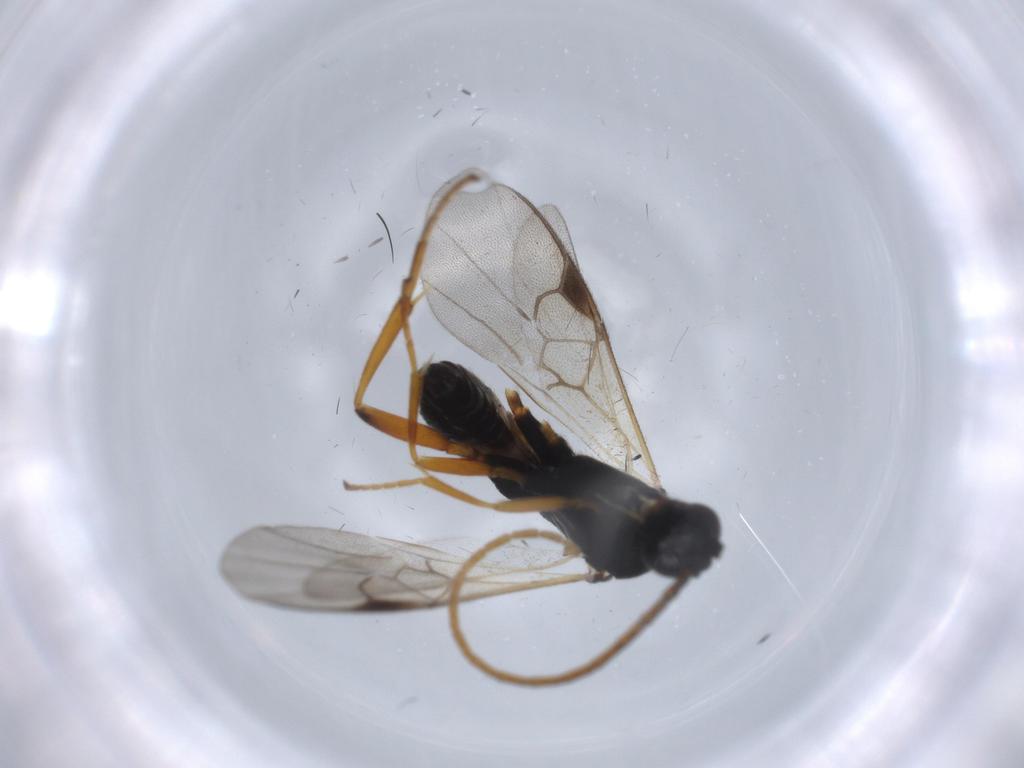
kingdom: Animalia
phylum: Arthropoda
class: Insecta
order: Hymenoptera
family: Braconidae
